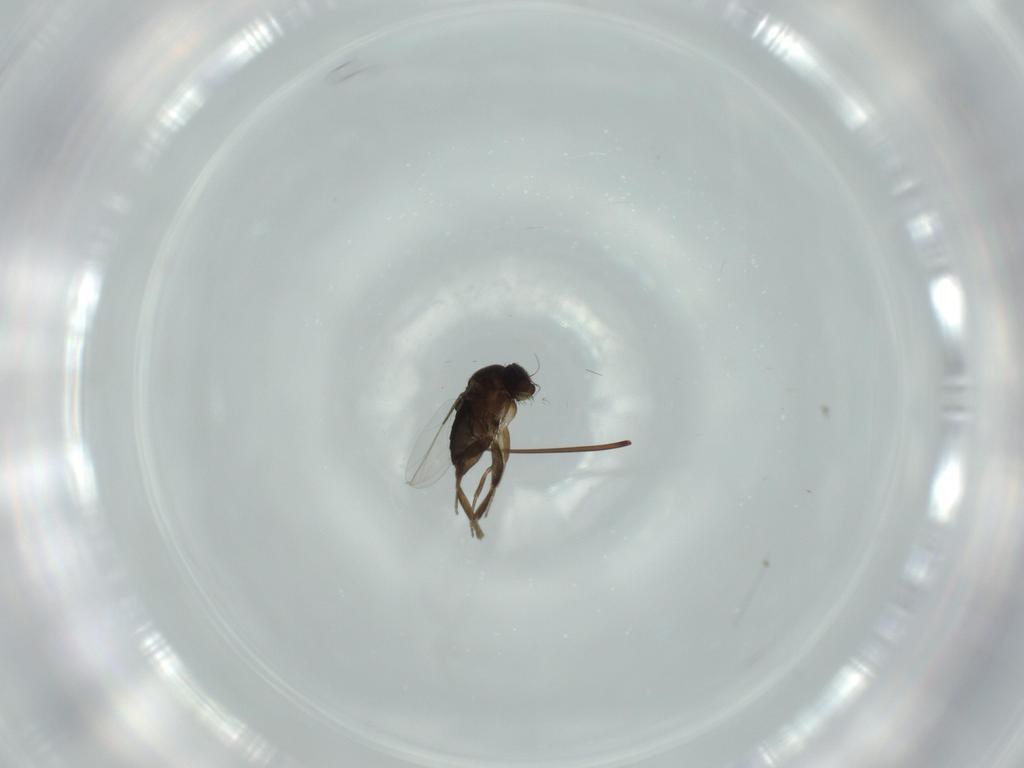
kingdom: Animalia
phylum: Arthropoda
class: Insecta
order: Diptera
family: Phoridae
